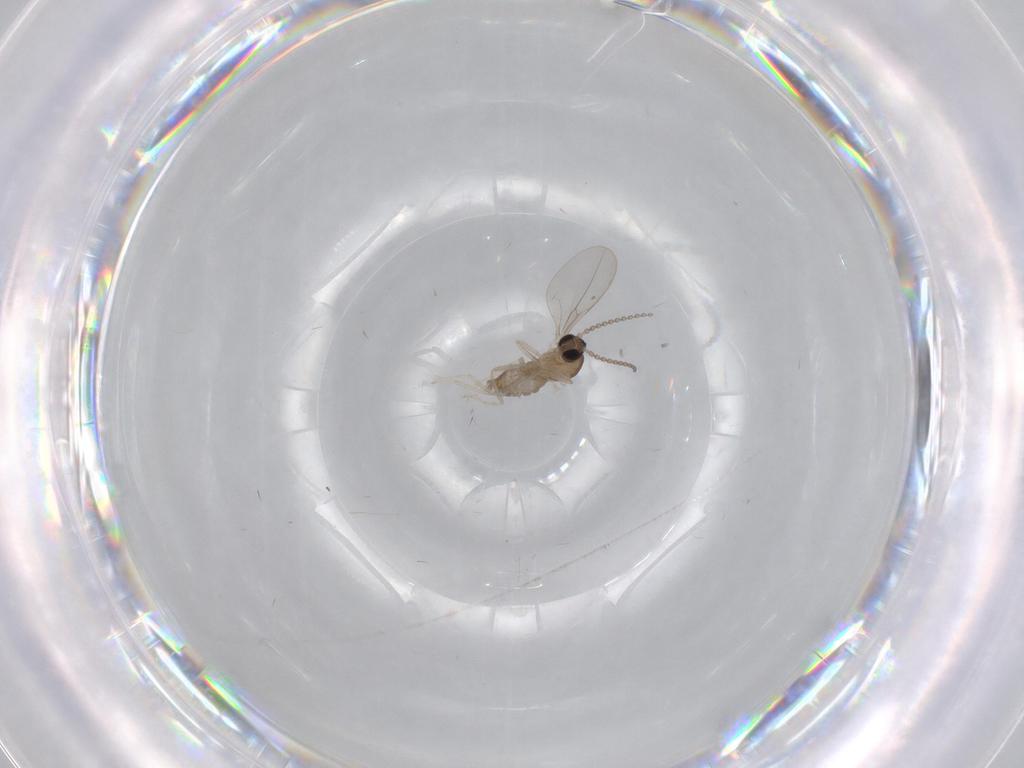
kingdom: Animalia
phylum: Arthropoda
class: Insecta
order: Diptera
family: Cecidomyiidae
